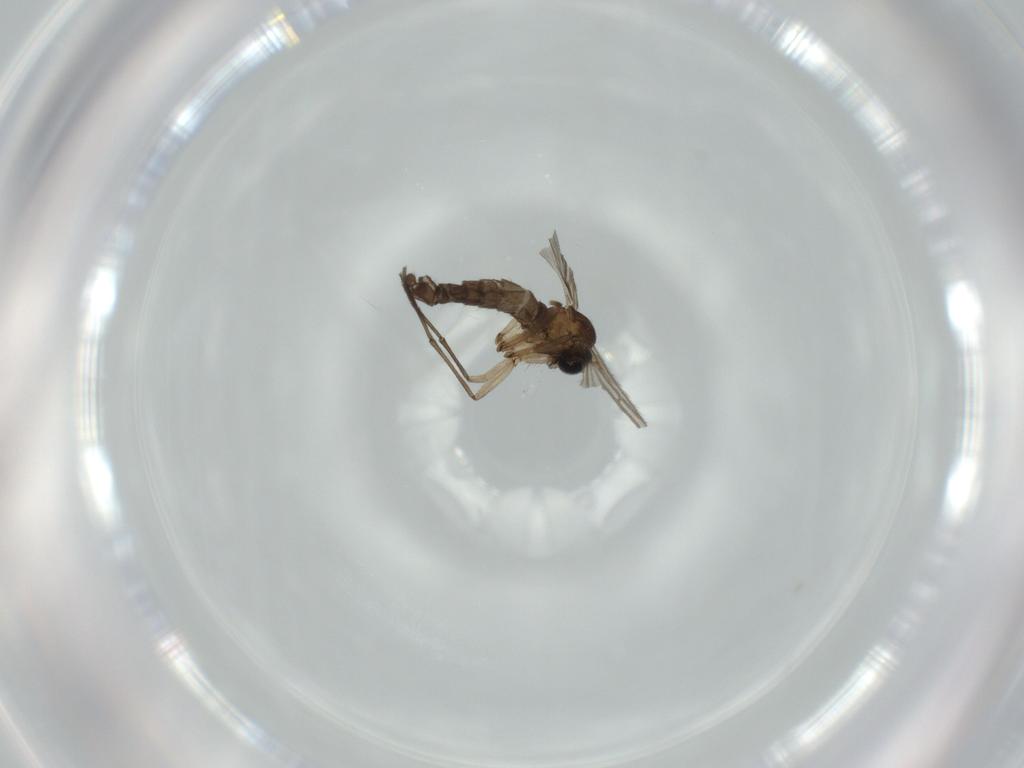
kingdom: Animalia
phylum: Arthropoda
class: Insecta
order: Diptera
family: Sciaridae
